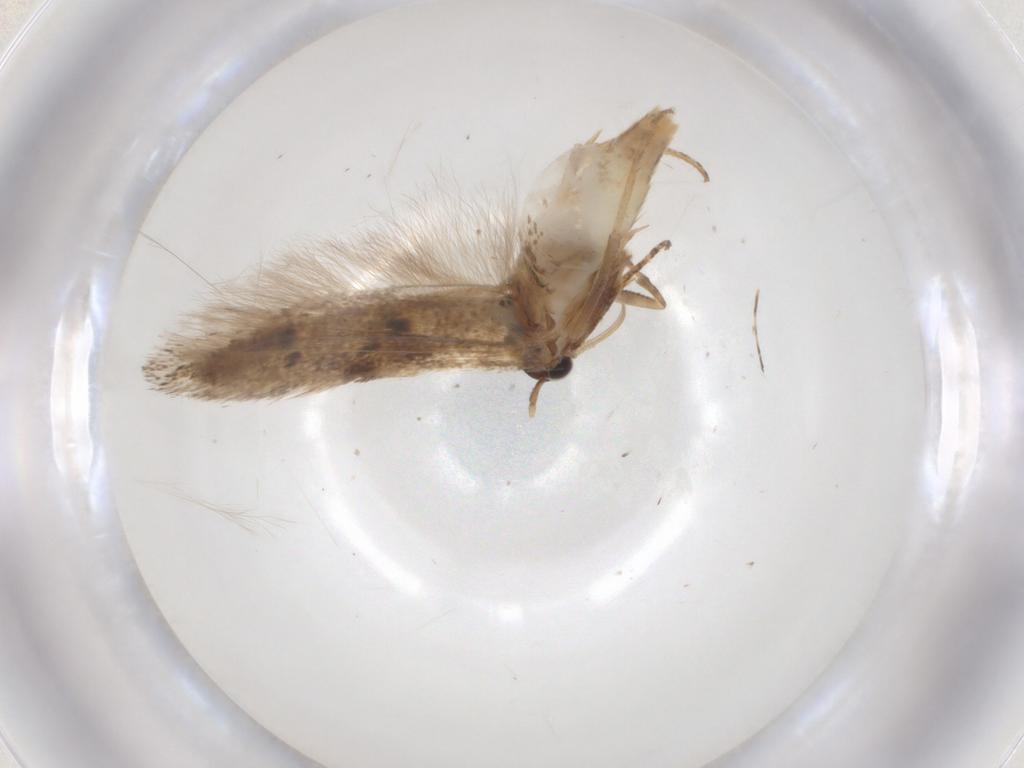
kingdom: Animalia
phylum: Arthropoda
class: Insecta
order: Lepidoptera
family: Gelechiidae
